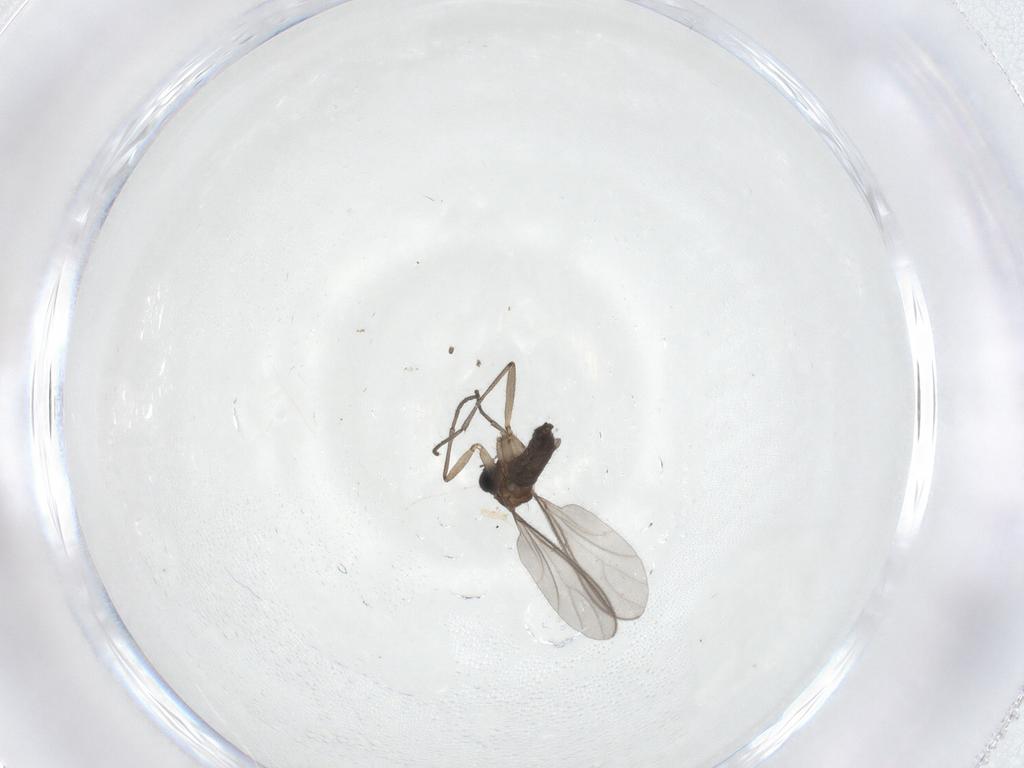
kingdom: Animalia
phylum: Arthropoda
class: Insecta
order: Diptera
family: Sciaridae
